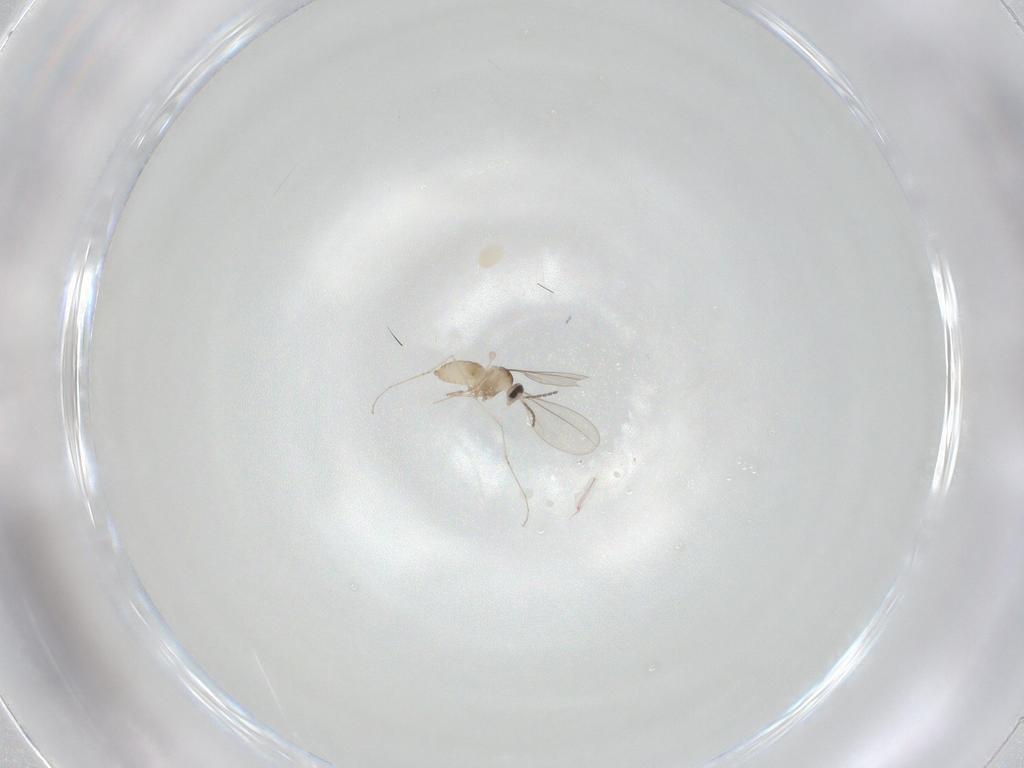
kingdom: Animalia
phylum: Arthropoda
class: Insecta
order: Diptera
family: Cecidomyiidae
